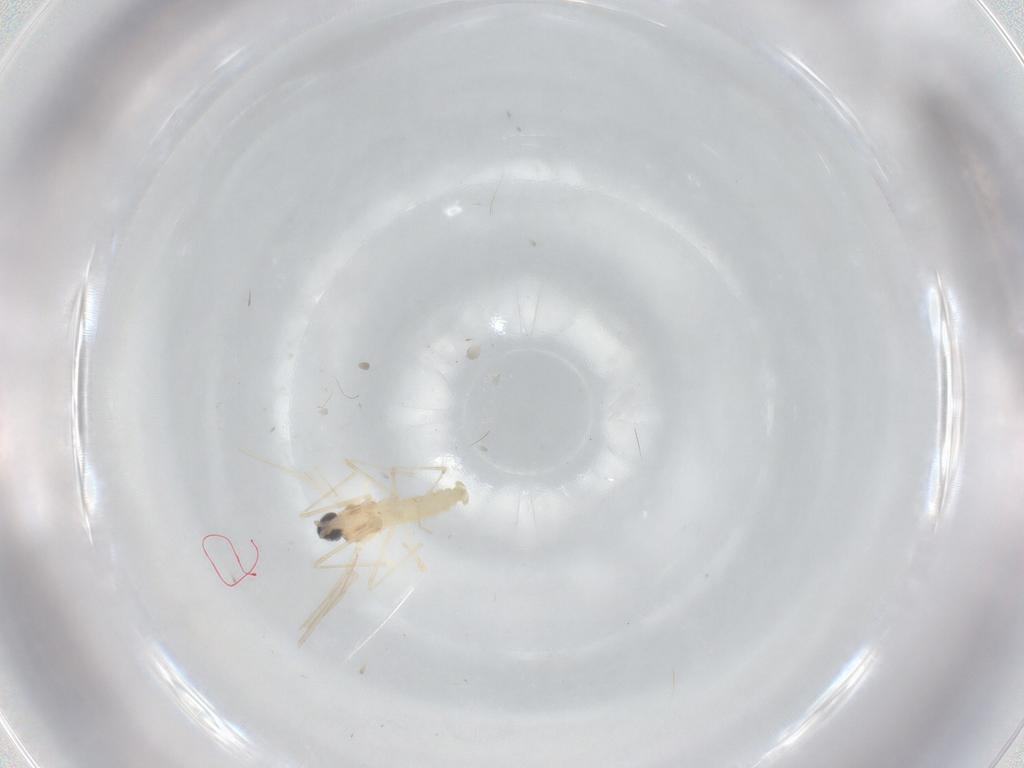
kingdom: Animalia
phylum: Arthropoda
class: Insecta
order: Diptera
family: Cecidomyiidae
